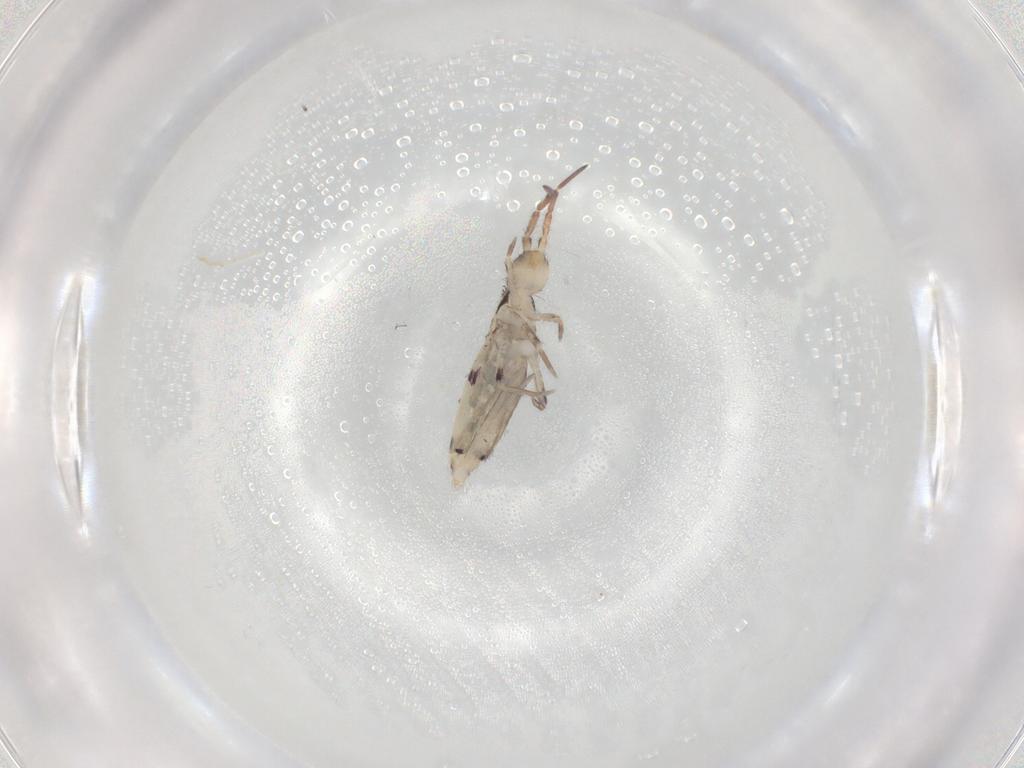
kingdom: Animalia
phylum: Arthropoda
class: Collembola
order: Entomobryomorpha
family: Entomobryidae
